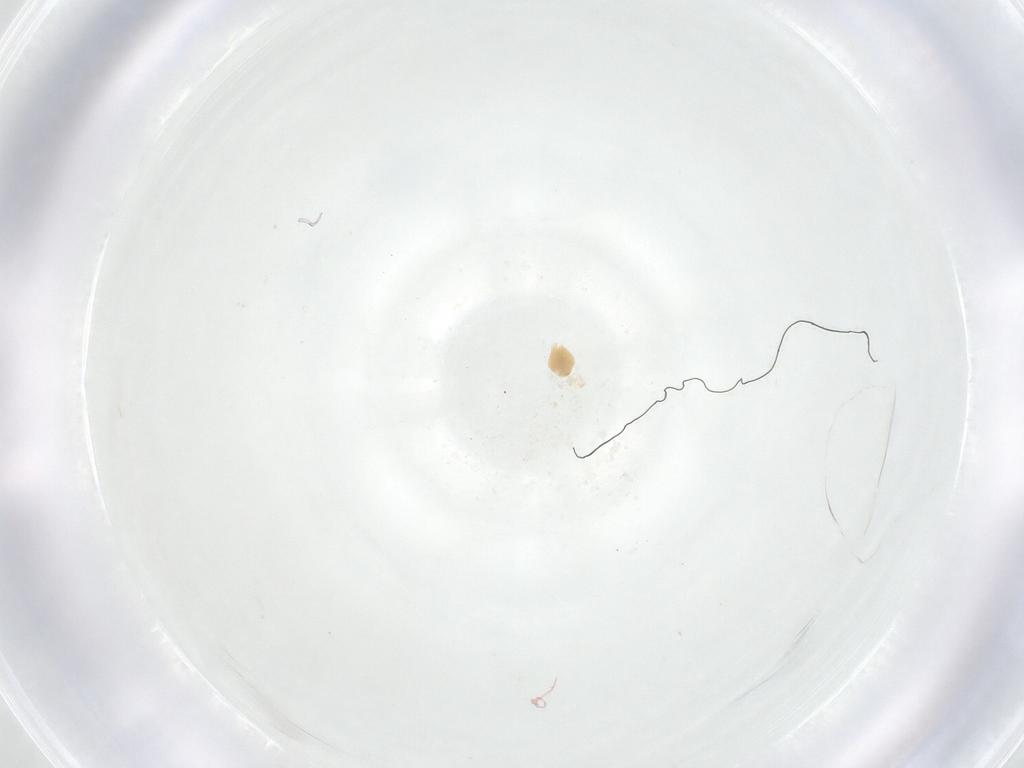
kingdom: Animalia
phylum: Arthropoda
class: Insecta
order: Hymenoptera
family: Eulophidae
